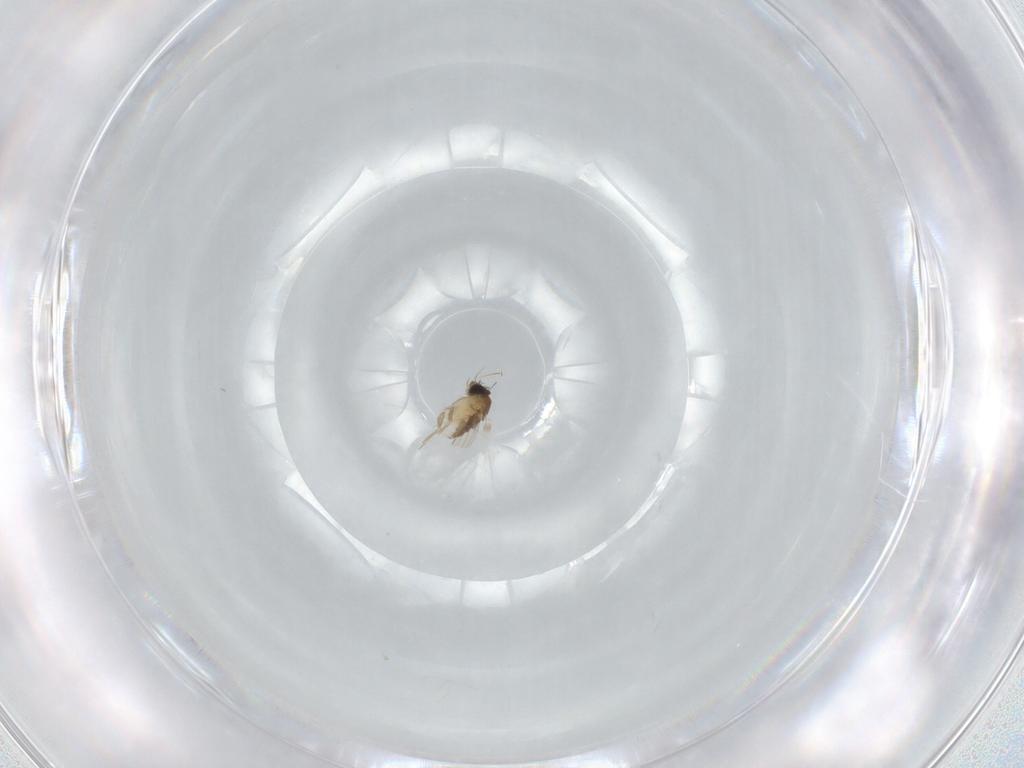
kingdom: Animalia
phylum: Arthropoda
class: Insecta
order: Diptera
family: Phoridae
